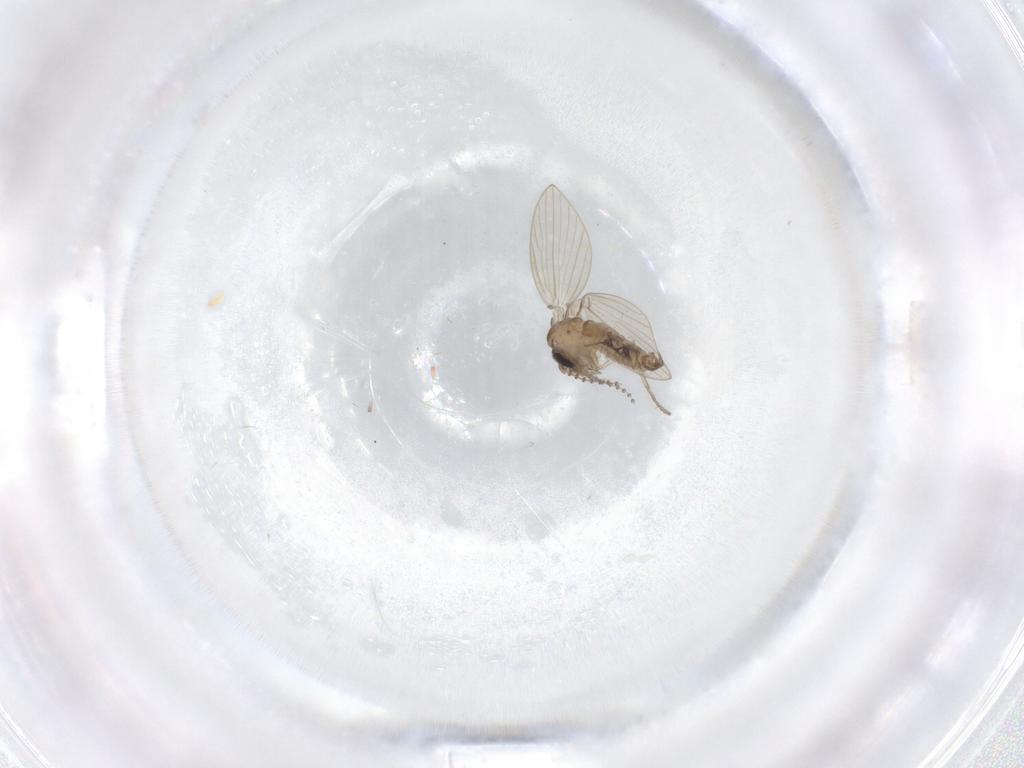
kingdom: Animalia
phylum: Arthropoda
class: Insecta
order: Diptera
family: Psychodidae
